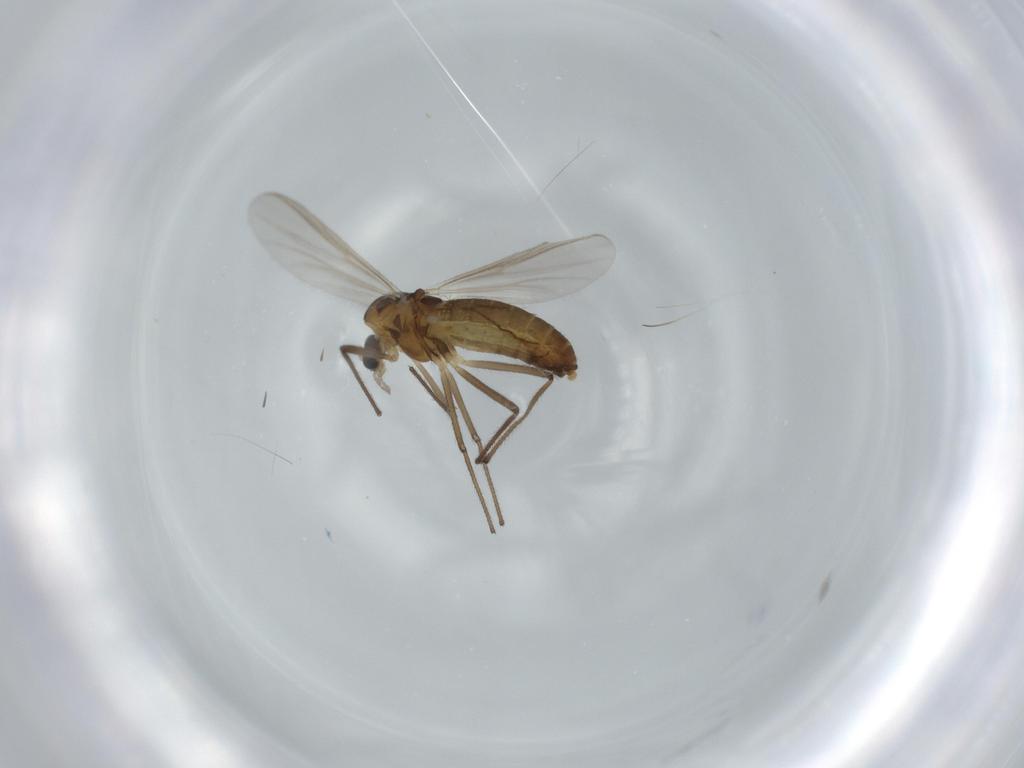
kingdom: Animalia
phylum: Arthropoda
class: Insecta
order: Diptera
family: Chironomidae
